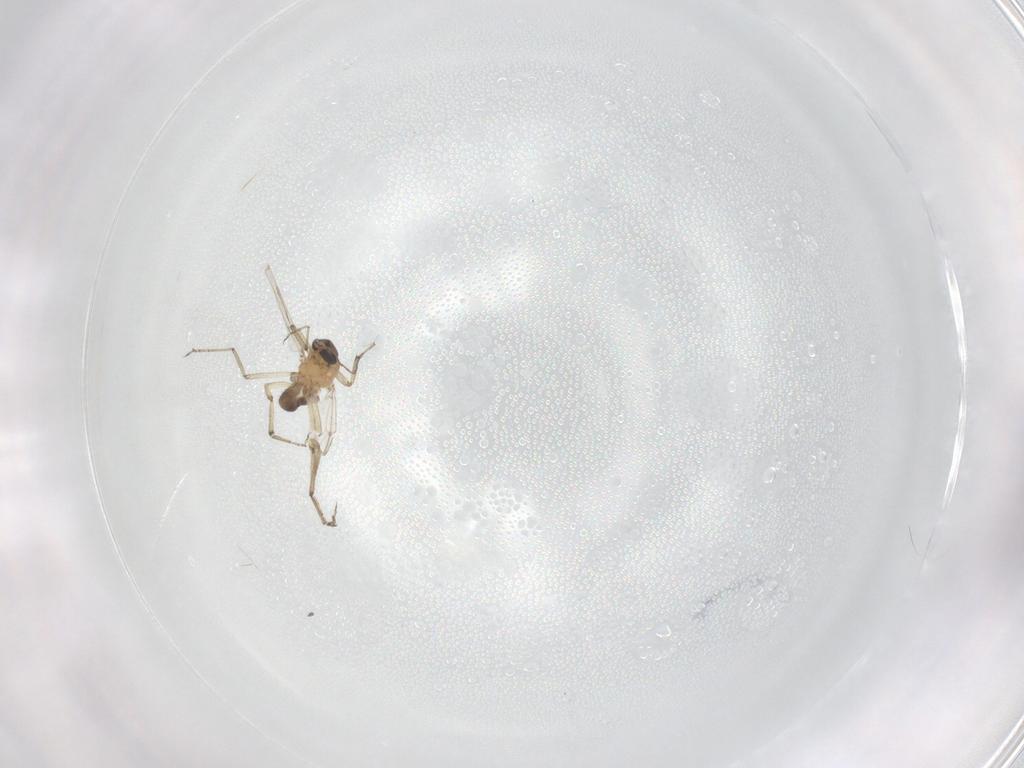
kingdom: Animalia
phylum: Arthropoda
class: Insecta
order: Diptera
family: Ceratopogonidae
